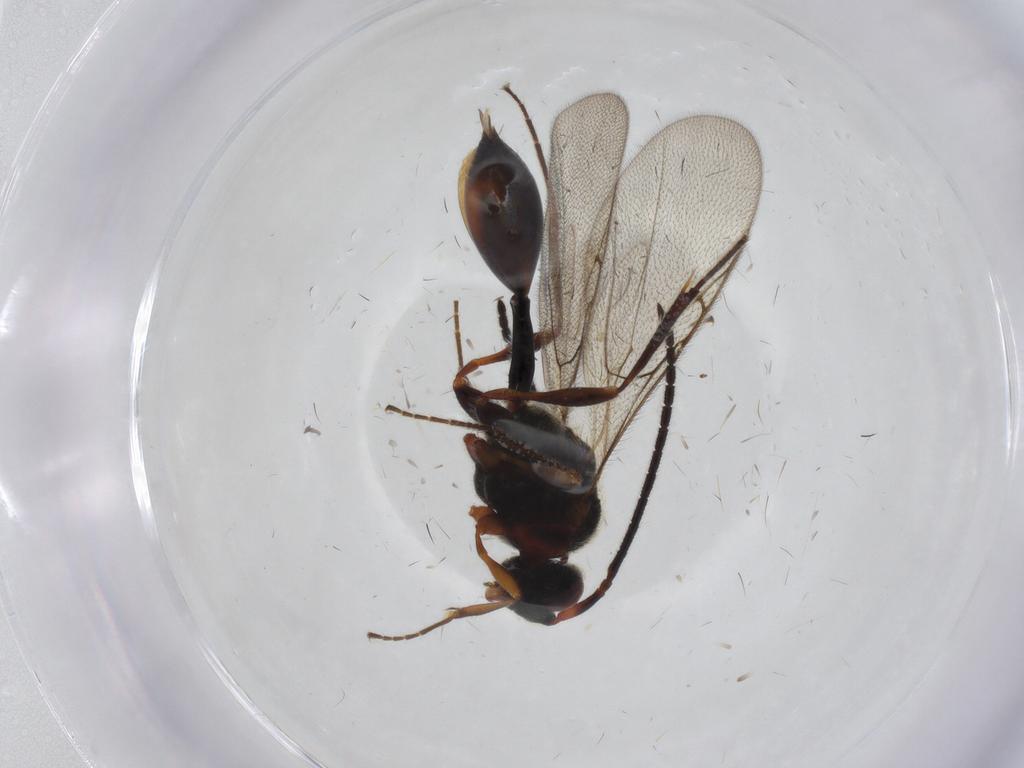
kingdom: Animalia
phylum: Arthropoda
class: Insecta
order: Hymenoptera
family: Diapriidae
